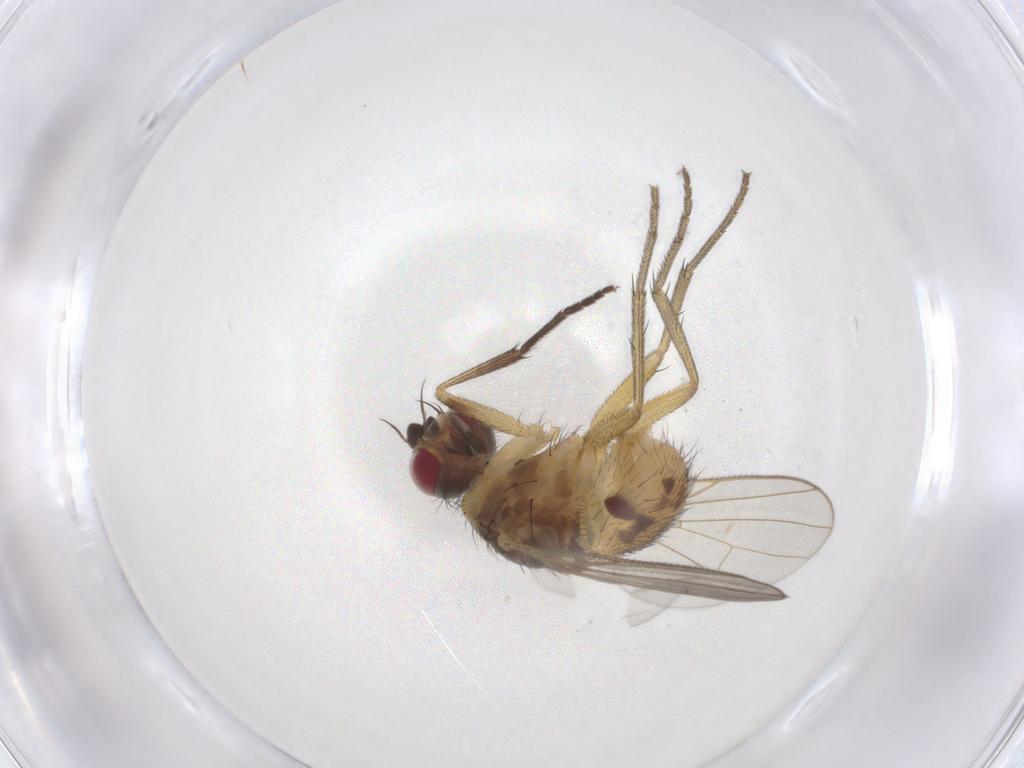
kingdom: Animalia
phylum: Arthropoda
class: Insecta
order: Diptera
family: Muscidae
